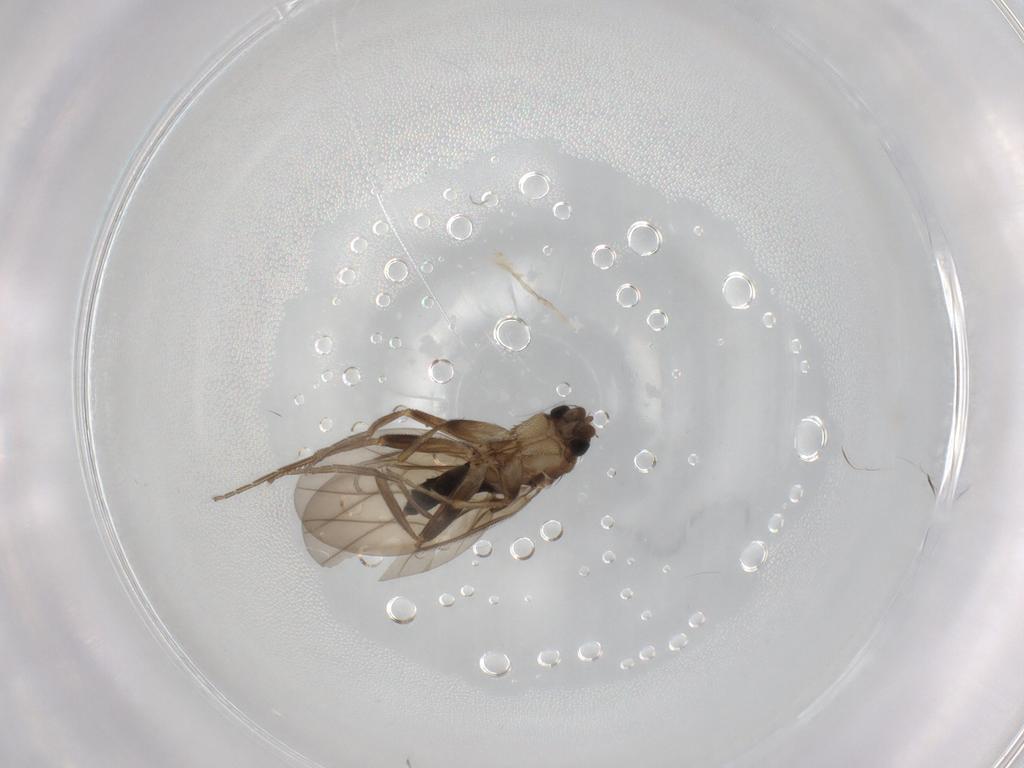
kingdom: Animalia
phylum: Arthropoda
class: Insecta
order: Diptera
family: Phoridae
